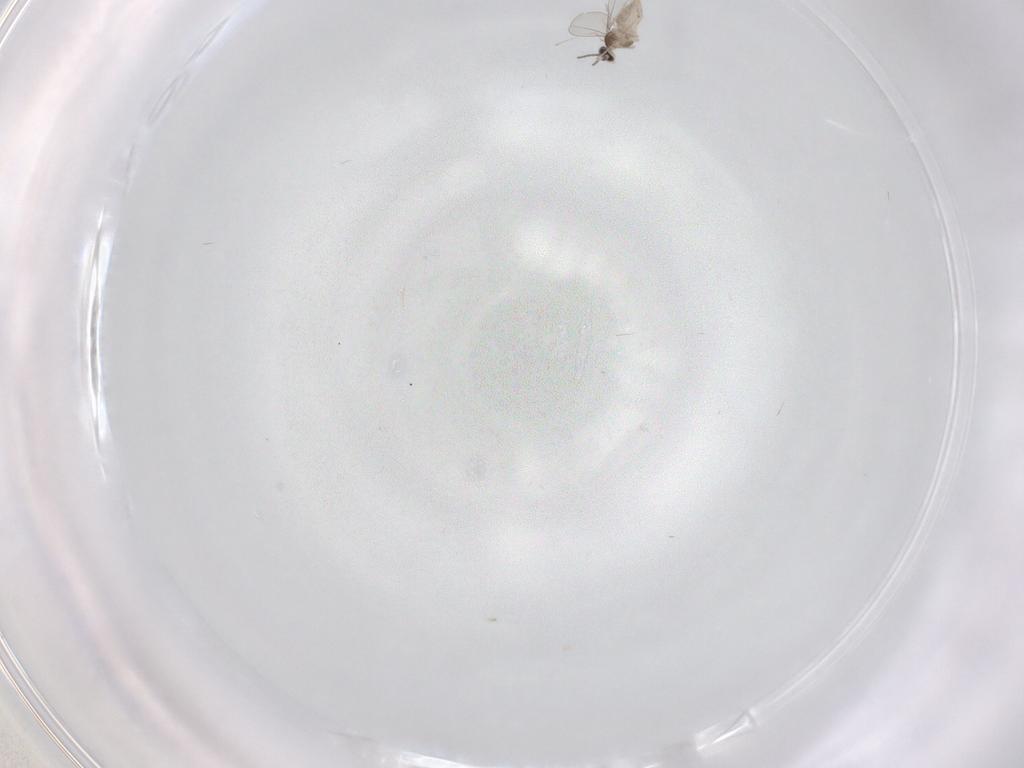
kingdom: Animalia
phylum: Arthropoda
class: Insecta
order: Diptera
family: Cecidomyiidae
